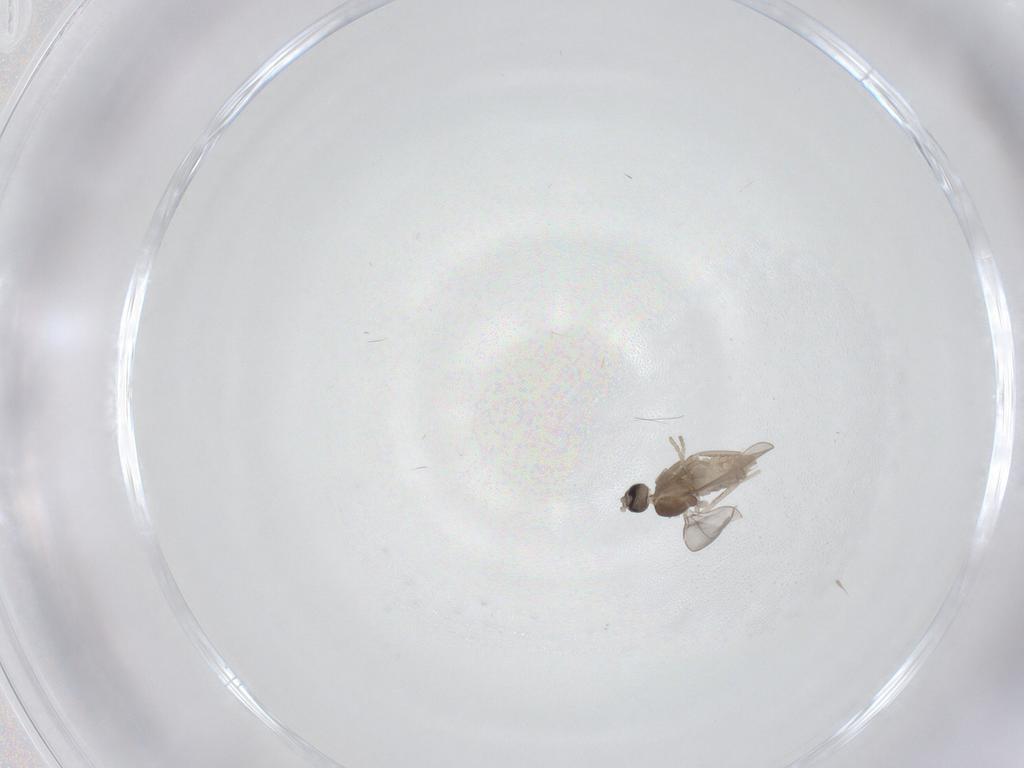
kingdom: Animalia
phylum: Arthropoda
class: Insecta
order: Diptera
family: Cecidomyiidae
